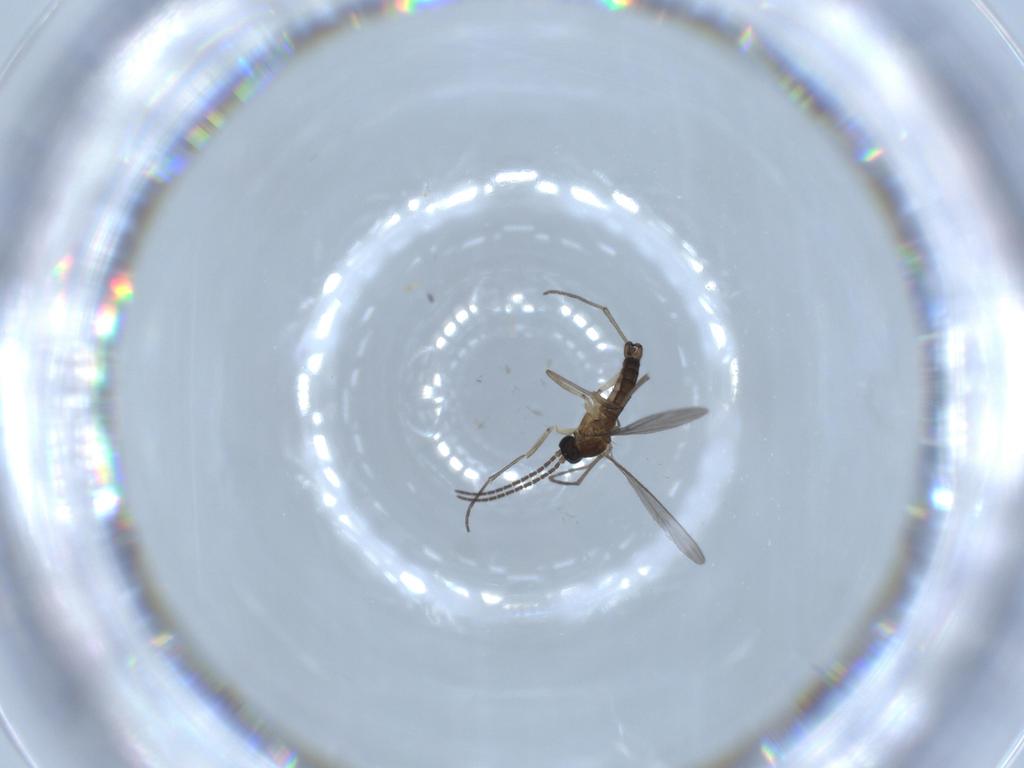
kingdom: Animalia
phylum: Arthropoda
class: Insecta
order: Diptera
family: Sciaridae
